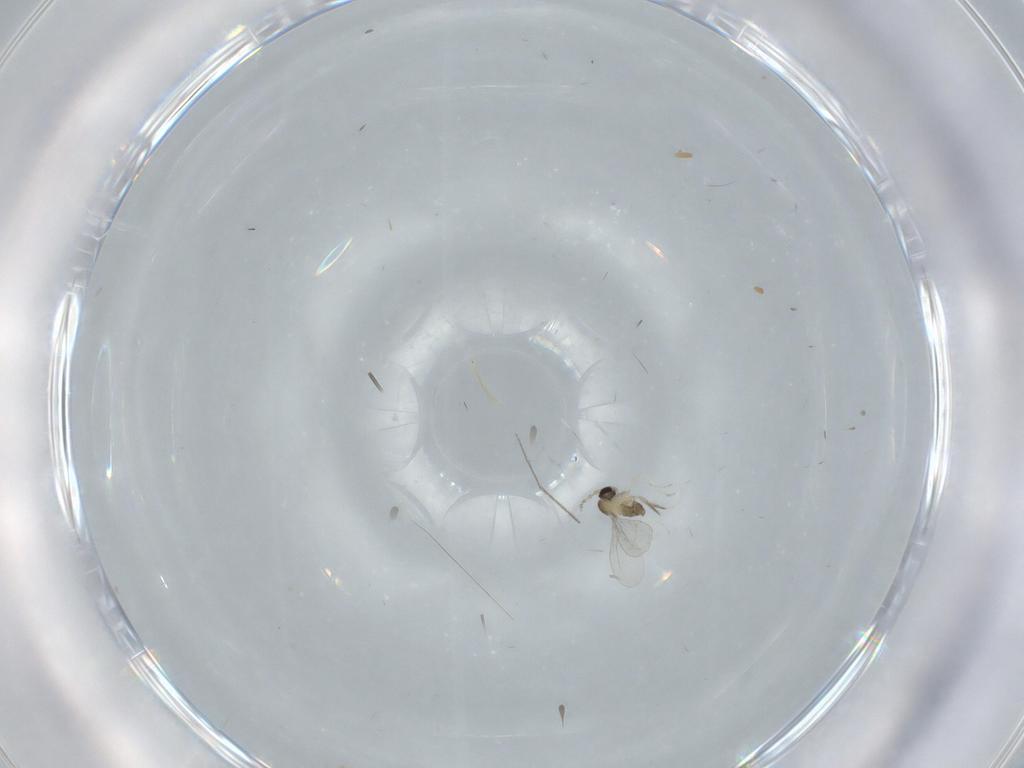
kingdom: Animalia
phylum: Arthropoda
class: Insecta
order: Diptera
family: Cecidomyiidae
